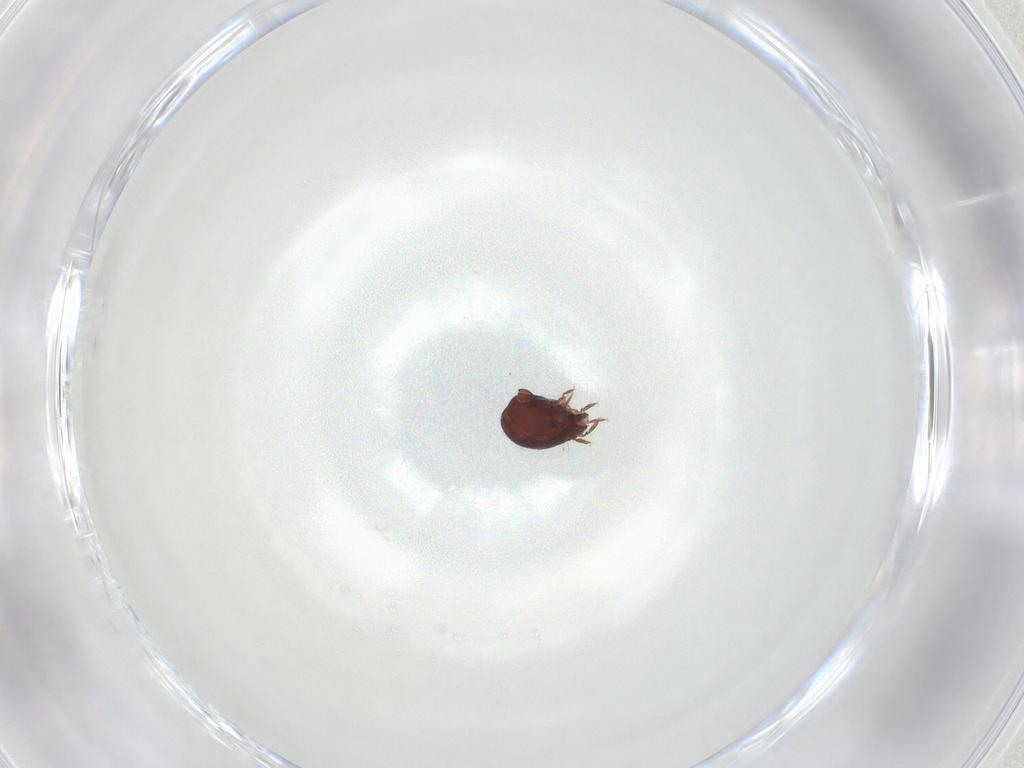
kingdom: Animalia
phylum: Arthropoda
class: Arachnida
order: Sarcoptiformes
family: Humerobatidae
